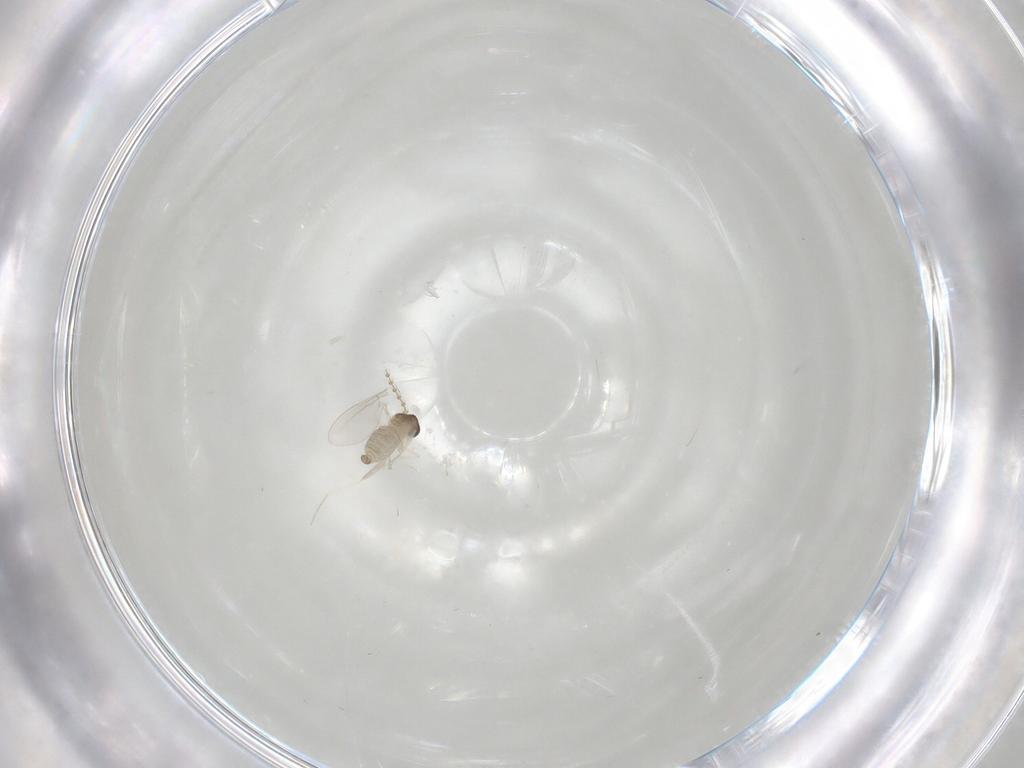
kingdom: Animalia
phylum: Arthropoda
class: Insecta
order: Diptera
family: Cecidomyiidae
